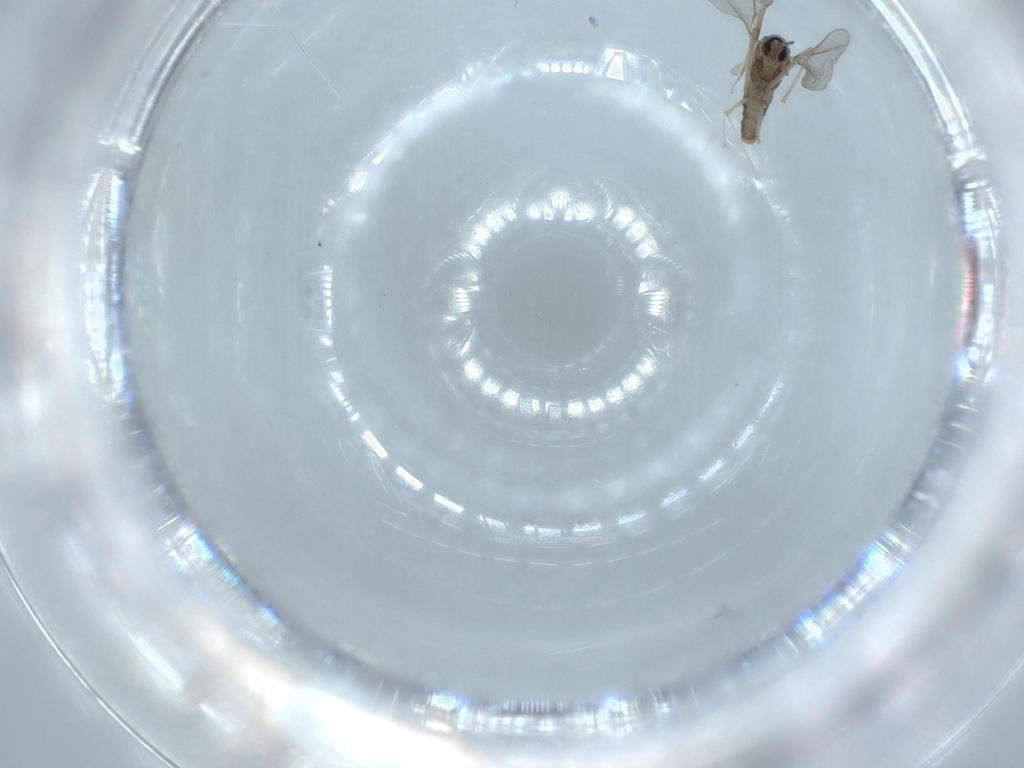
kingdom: Animalia
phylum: Arthropoda
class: Insecta
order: Diptera
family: Cecidomyiidae
